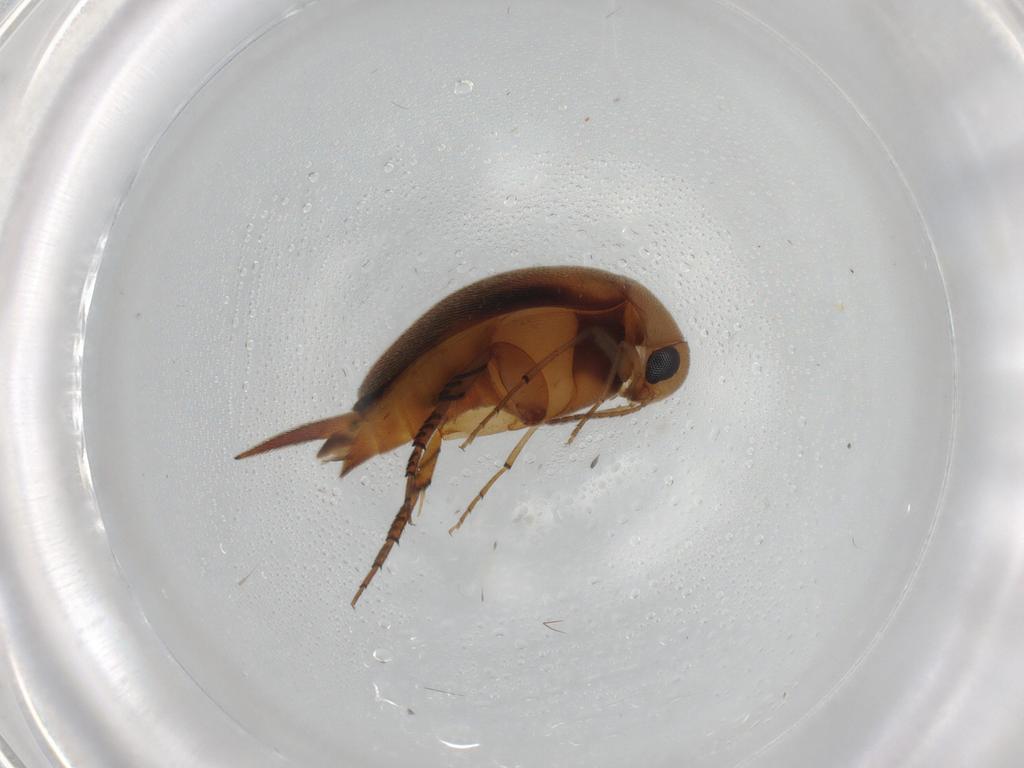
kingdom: Animalia
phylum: Arthropoda
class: Insecta
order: Coleoptera
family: Mordellidae
